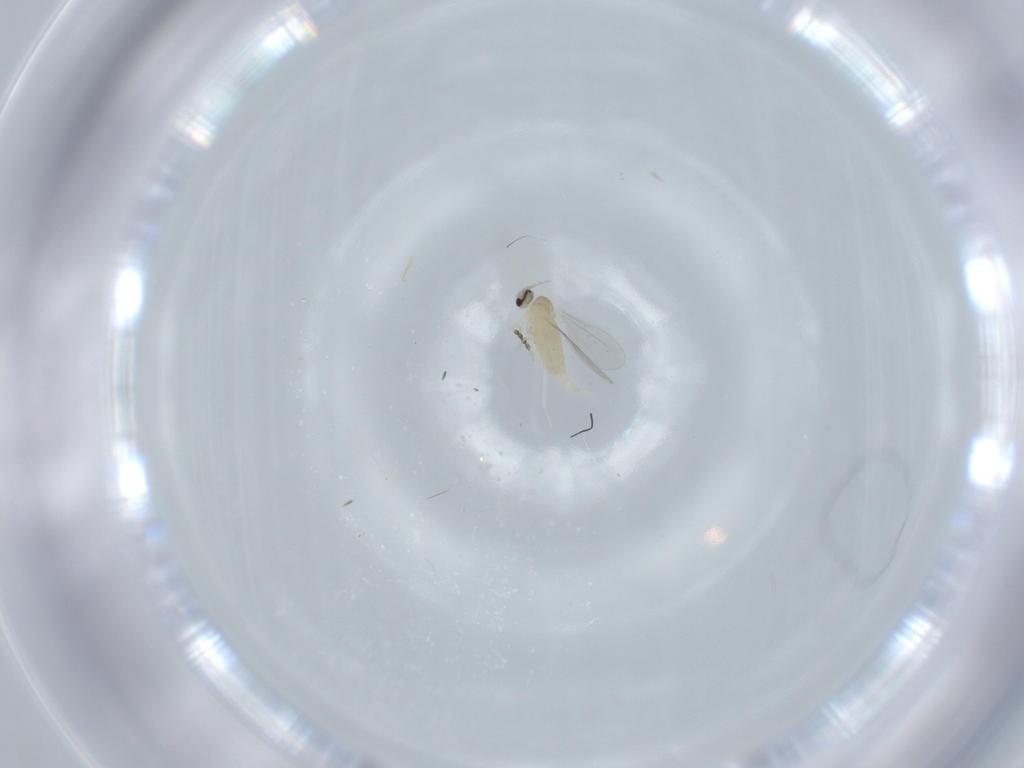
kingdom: Animalia
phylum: Arthropoda
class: Insecta
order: Diptera
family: Cecidomyiidae
